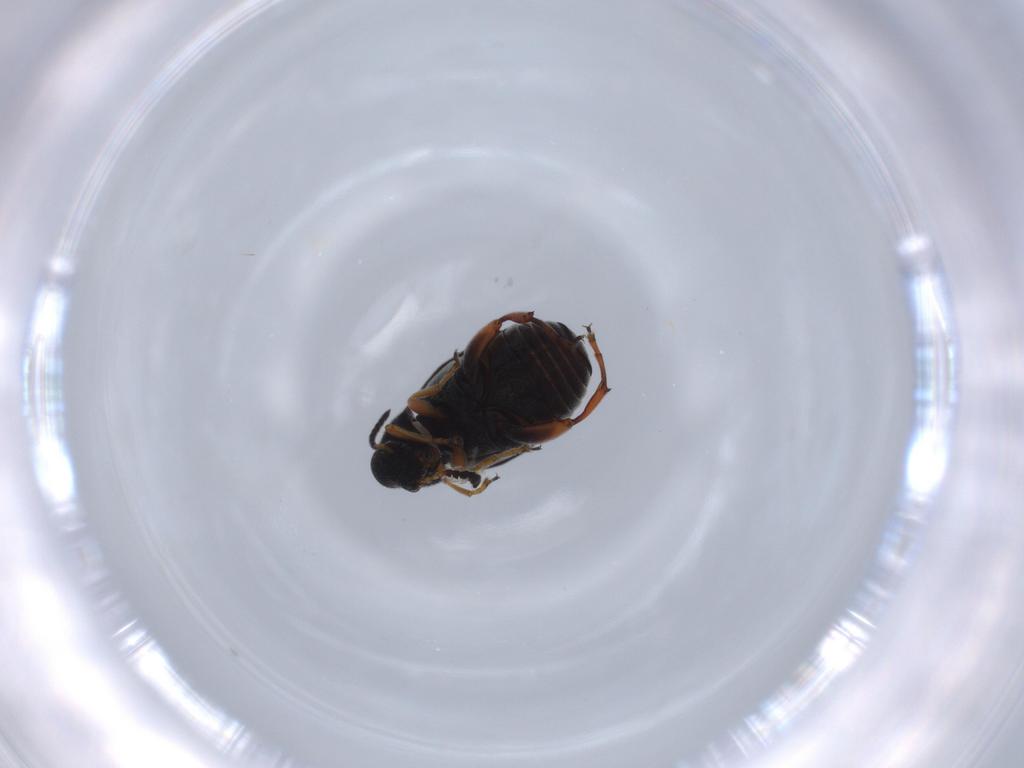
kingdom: Animalia
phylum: Arthropoda
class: Insecta
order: Coleoptera
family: Chrysomelidae
